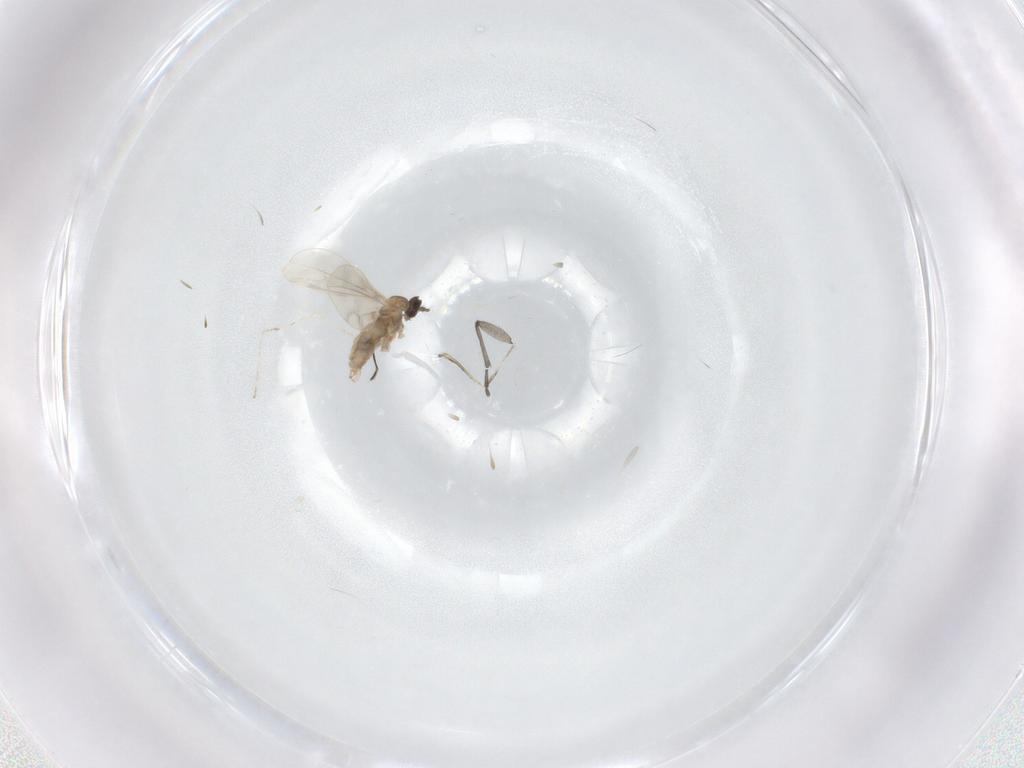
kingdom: Animalia
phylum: Arthropoda
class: Insecta
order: Diptera
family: Sciaridae
